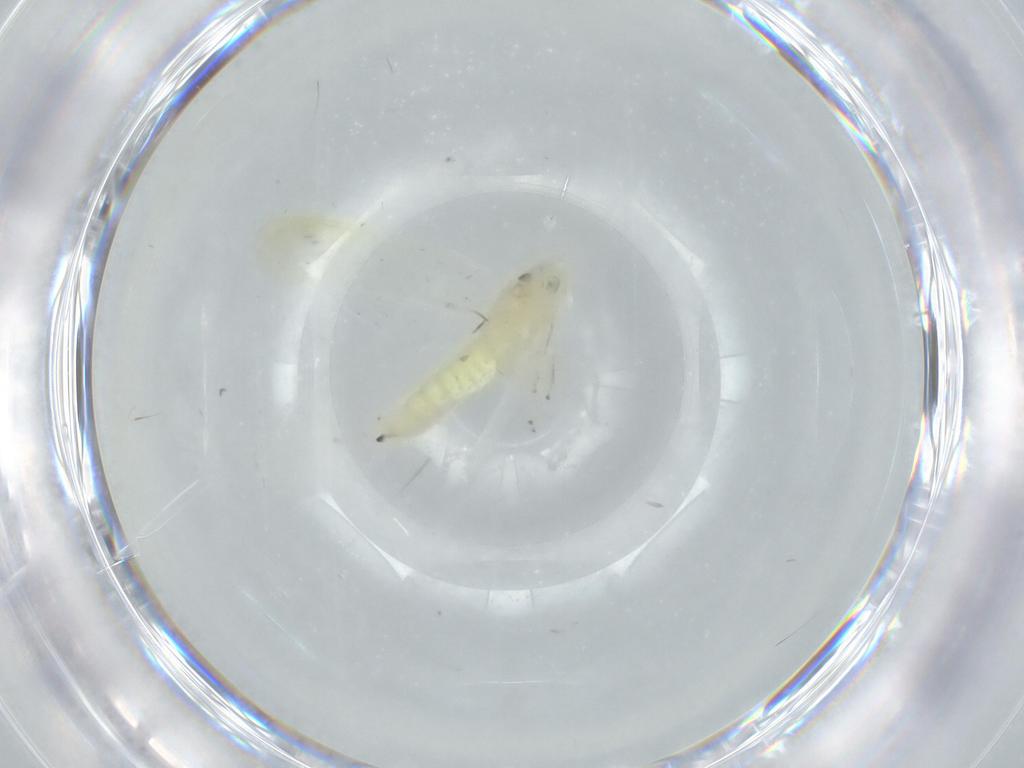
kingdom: Animalia
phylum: Arthropoda
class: Insecta
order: Hemiptera
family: Cicadellidae
